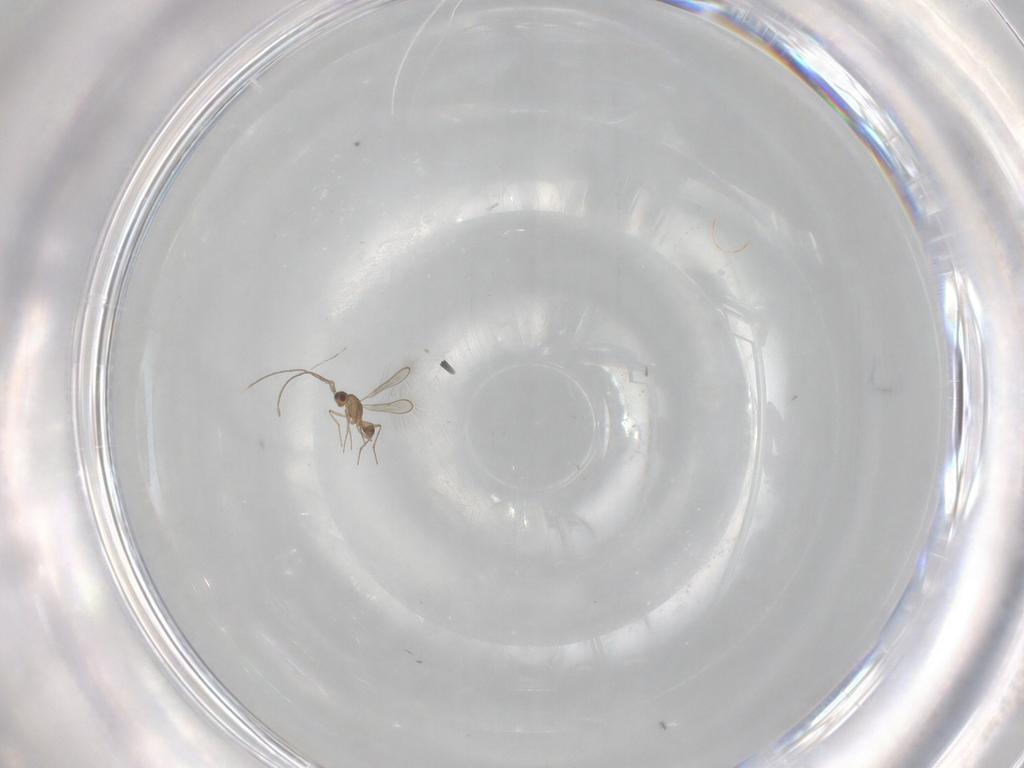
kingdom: Animalia
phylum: Arthropoda
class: Insecta
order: Hymenoptera
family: Scelionidae
